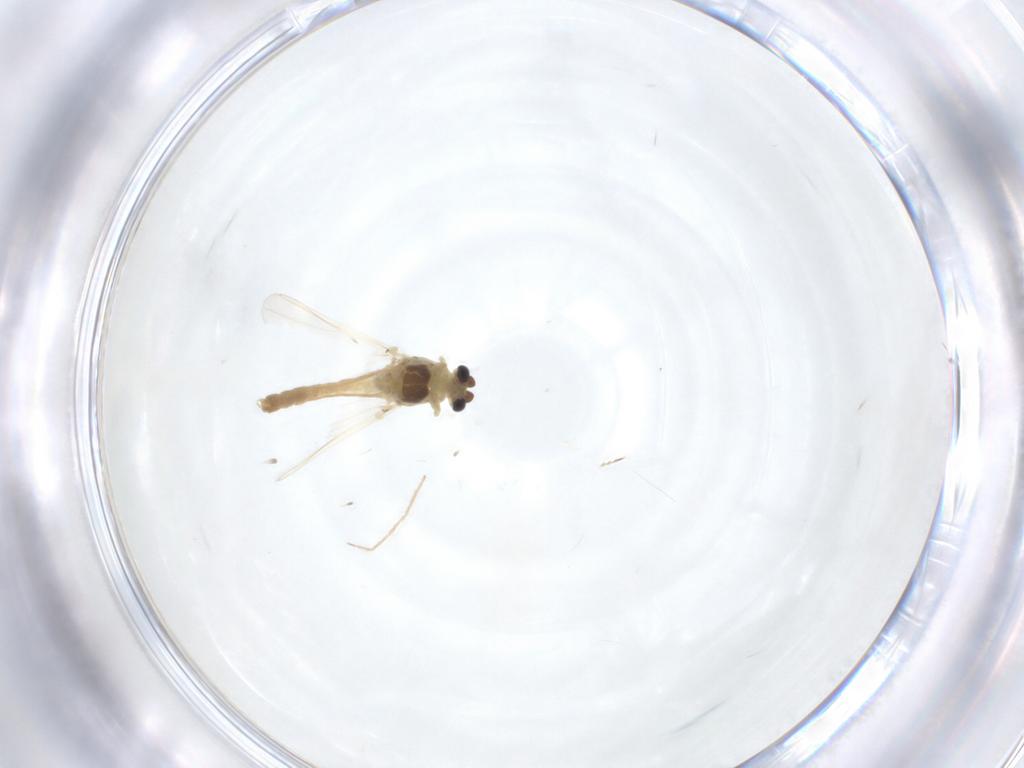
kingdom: Animalia
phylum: Arthropoda
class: Insecta
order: Diptera
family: Chironomidae
